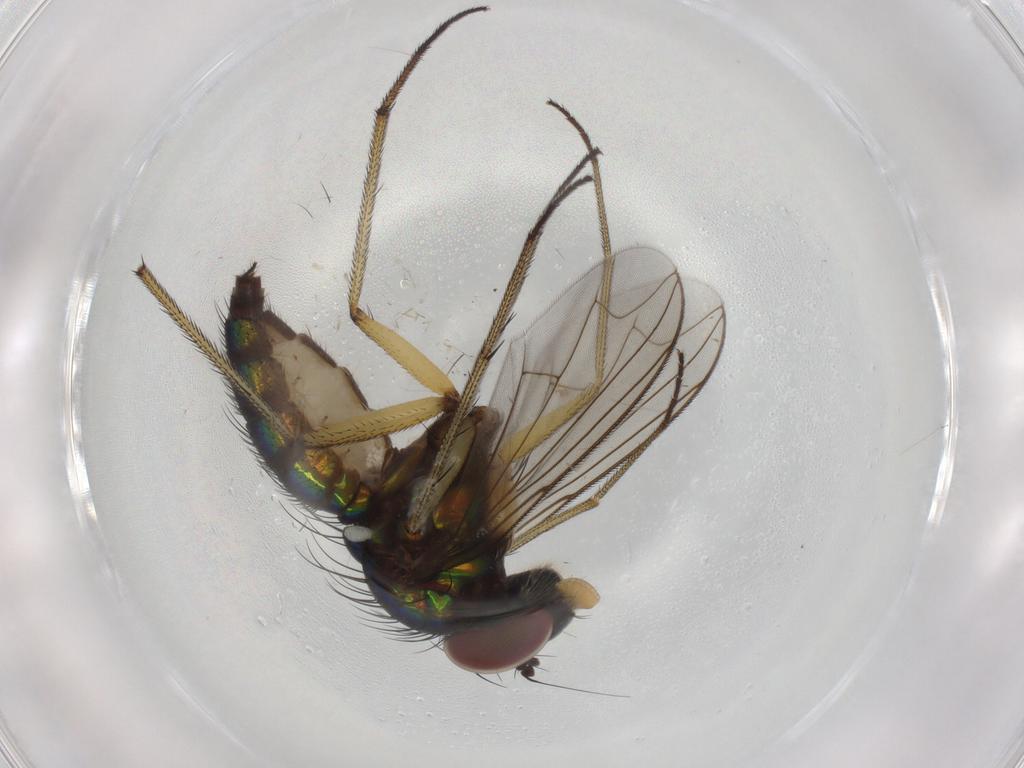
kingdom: Animalia
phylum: Arthropoda
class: Insecta
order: Diptera
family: Dolichopodidae
